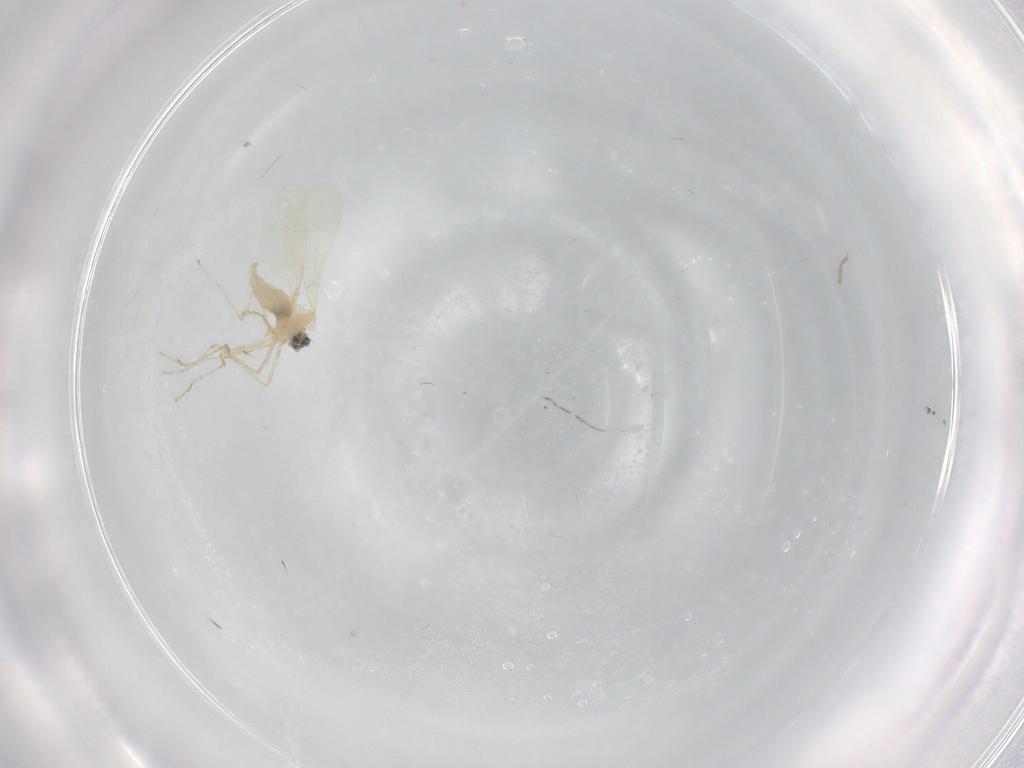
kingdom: Animalia
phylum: Arthropoda
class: Insecta
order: Diptera
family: Cecidomyiidae
